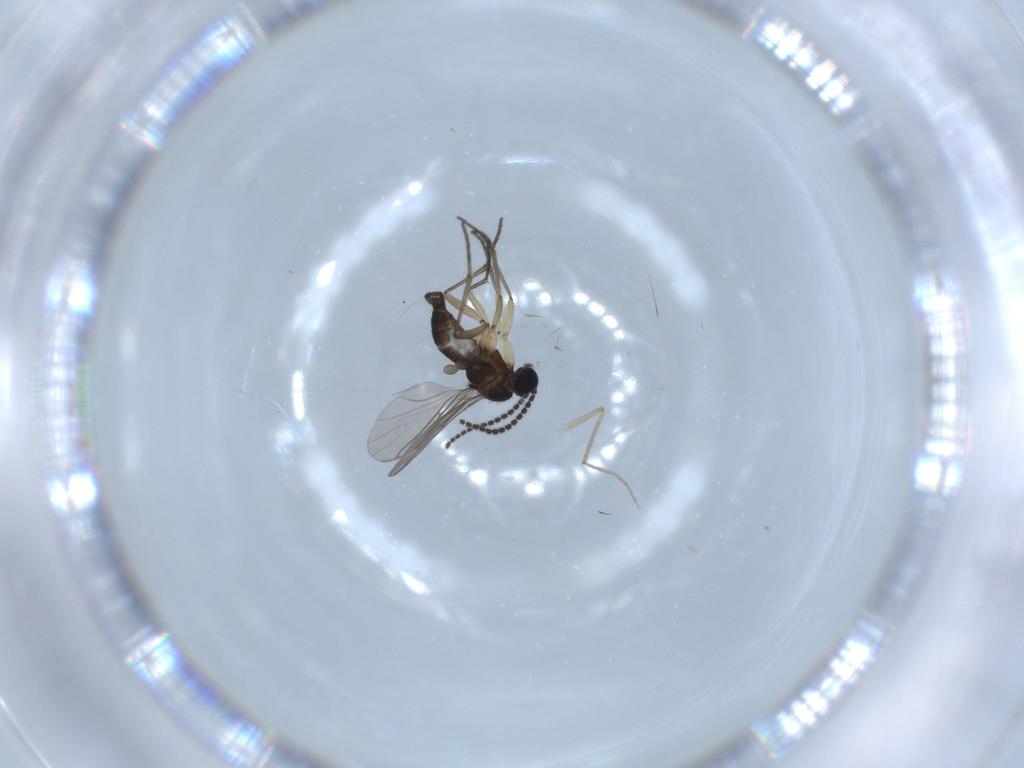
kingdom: Animalia
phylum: Arthropoda
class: Insecta
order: Diptera
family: Sciaridae
